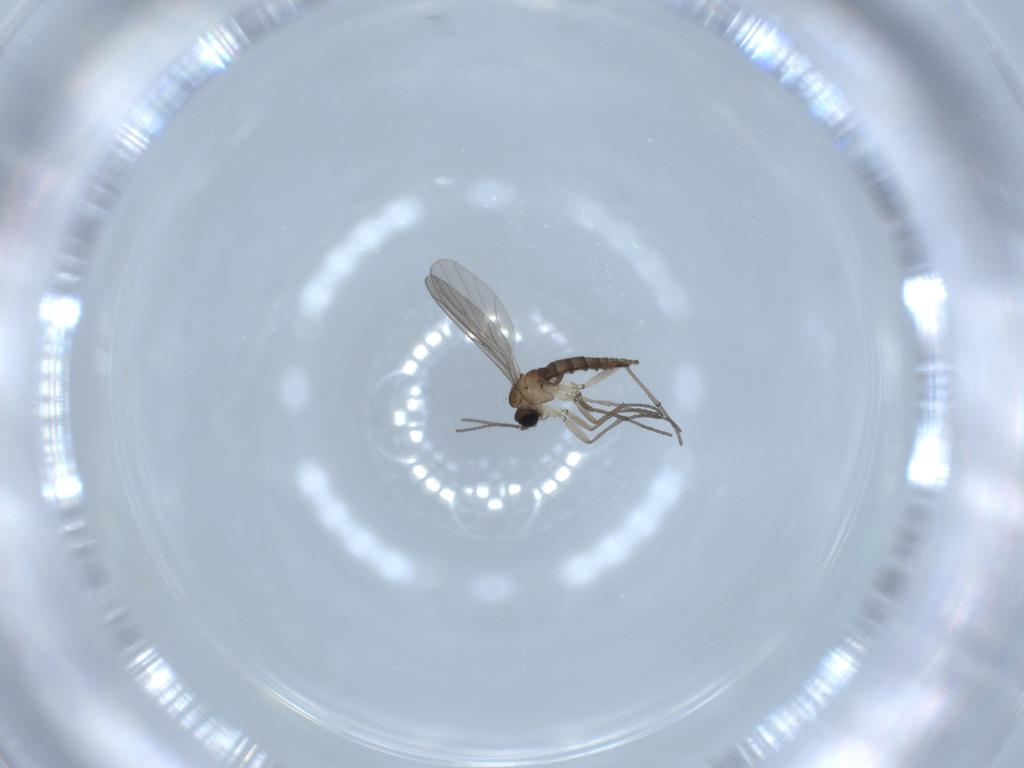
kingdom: Animalia
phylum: Arthropoda
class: Insecta
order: Diptera
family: Sciaridae
